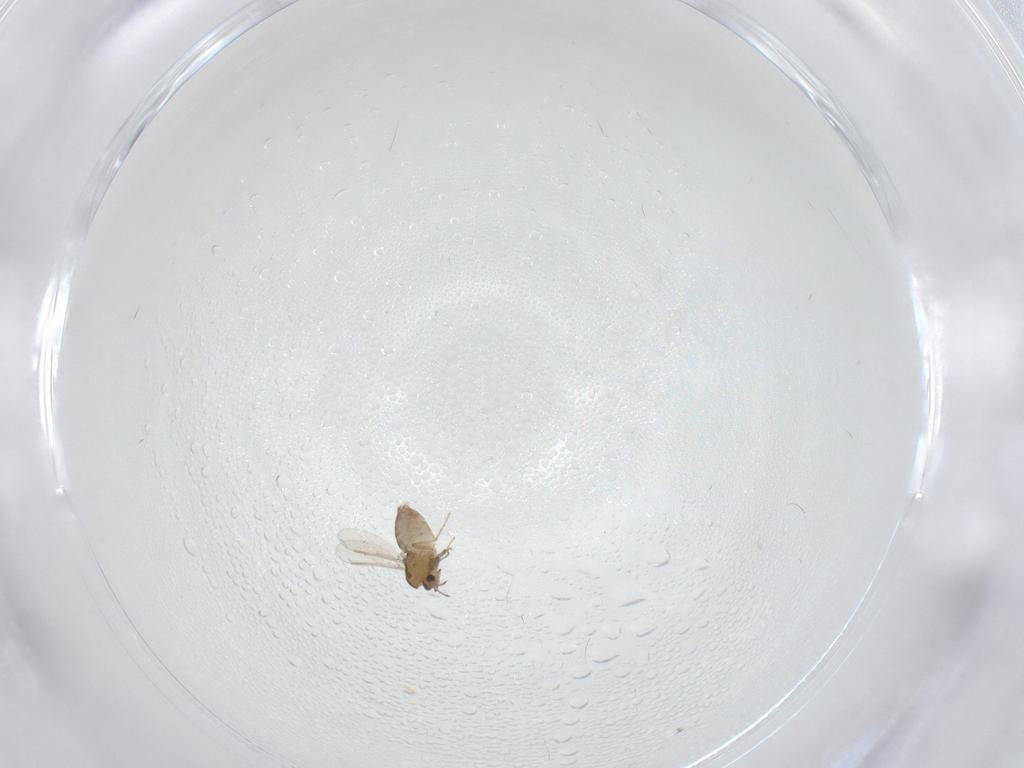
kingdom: Animalia
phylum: Arthropoda
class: Insecta
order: Diptera
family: Chironomidae
